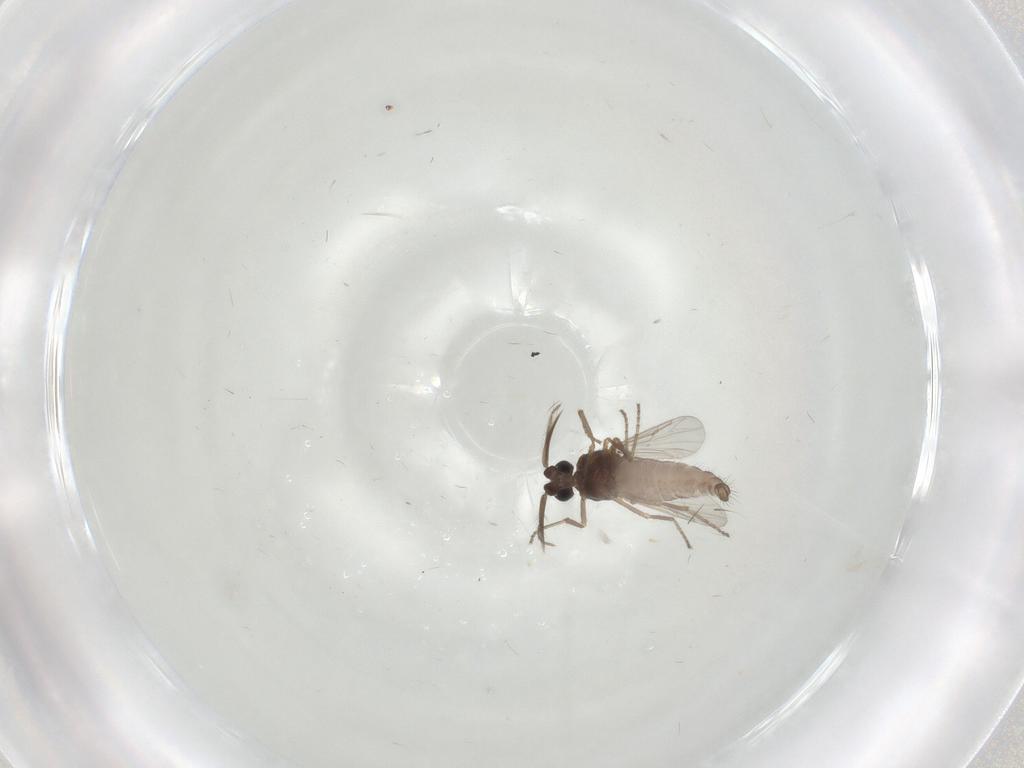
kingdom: Animalia
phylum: Arthropoda
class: Insecta
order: Diptera
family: Ceratopogonidae
